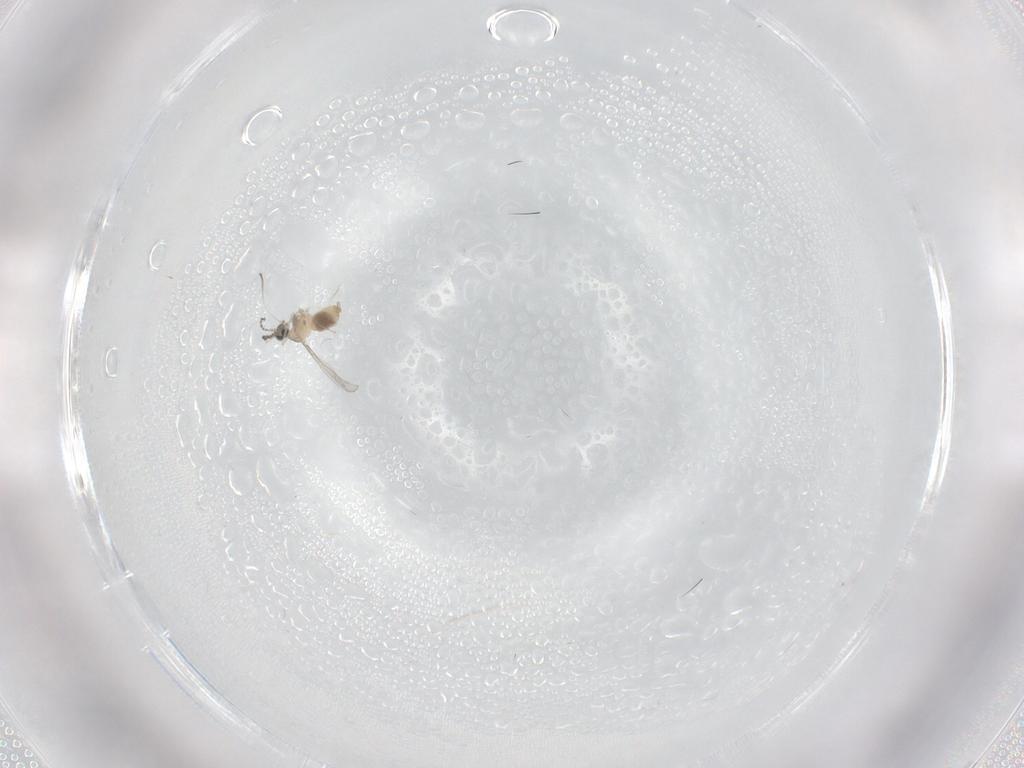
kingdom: Animalia
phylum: Arthropoda
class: Insecta
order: Diptera
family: Cecidomyiidae
